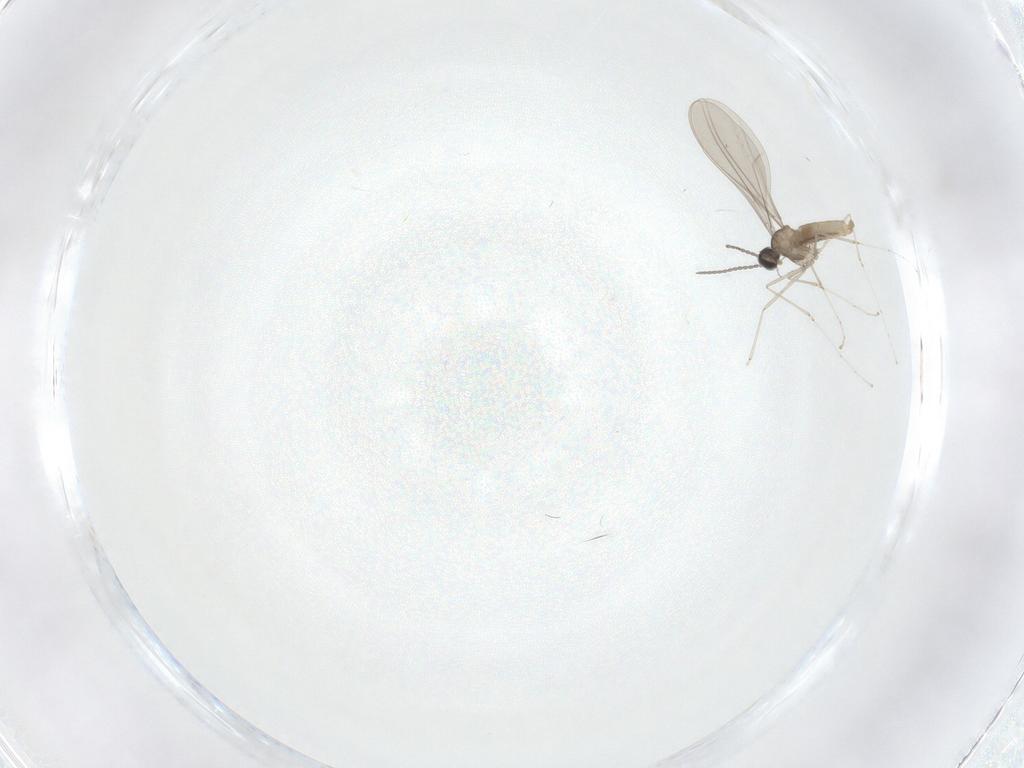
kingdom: Animalia
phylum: Arthropoda
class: Insecta
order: Diptera
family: Cecidomyiidae
